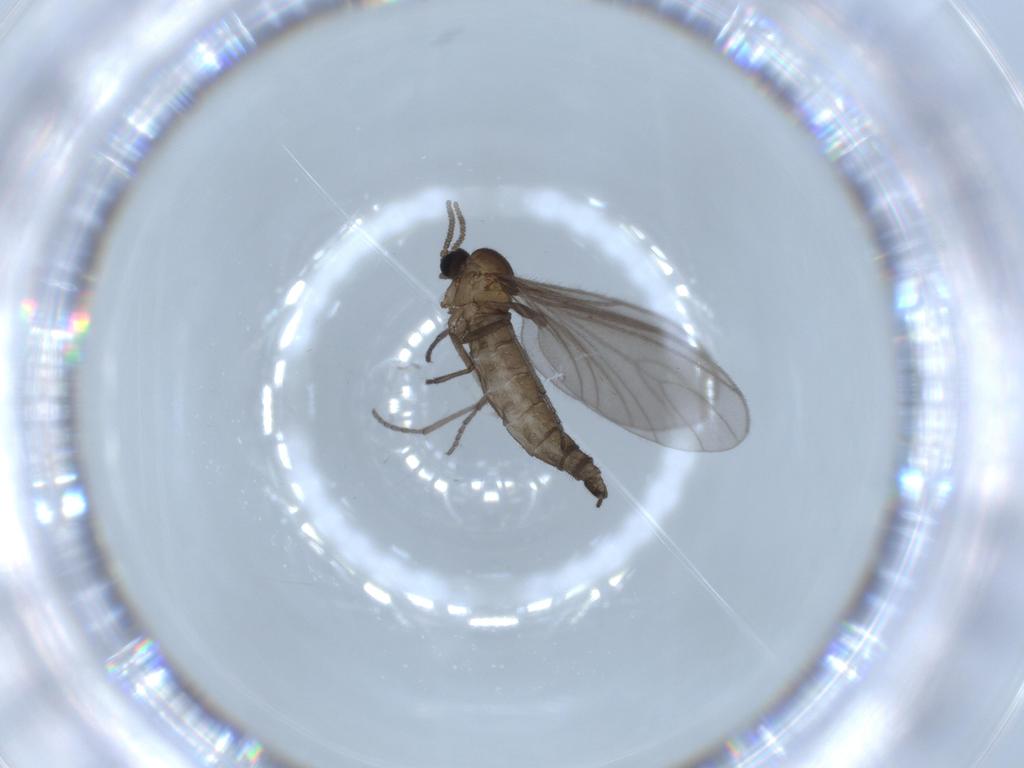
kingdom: Animalia
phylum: Arthropoda
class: Insecta
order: Diptera
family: Sciaridae
